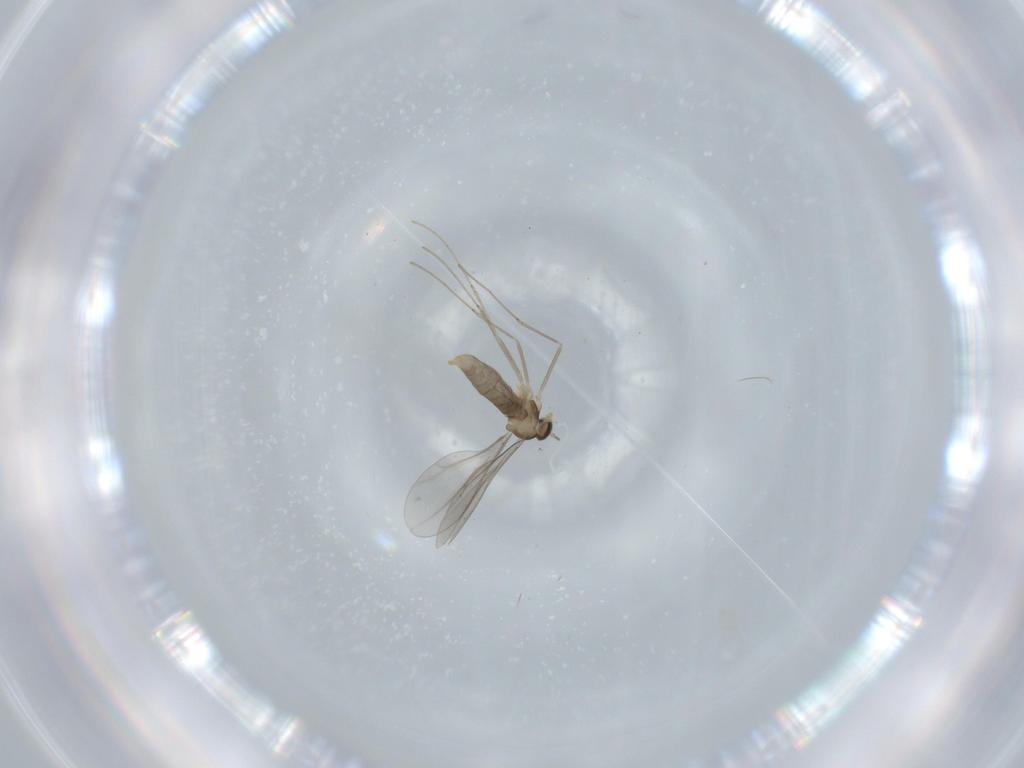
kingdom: Animalia
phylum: Arthropoda
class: Insecta
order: Diptera
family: Cecidomyiidae
